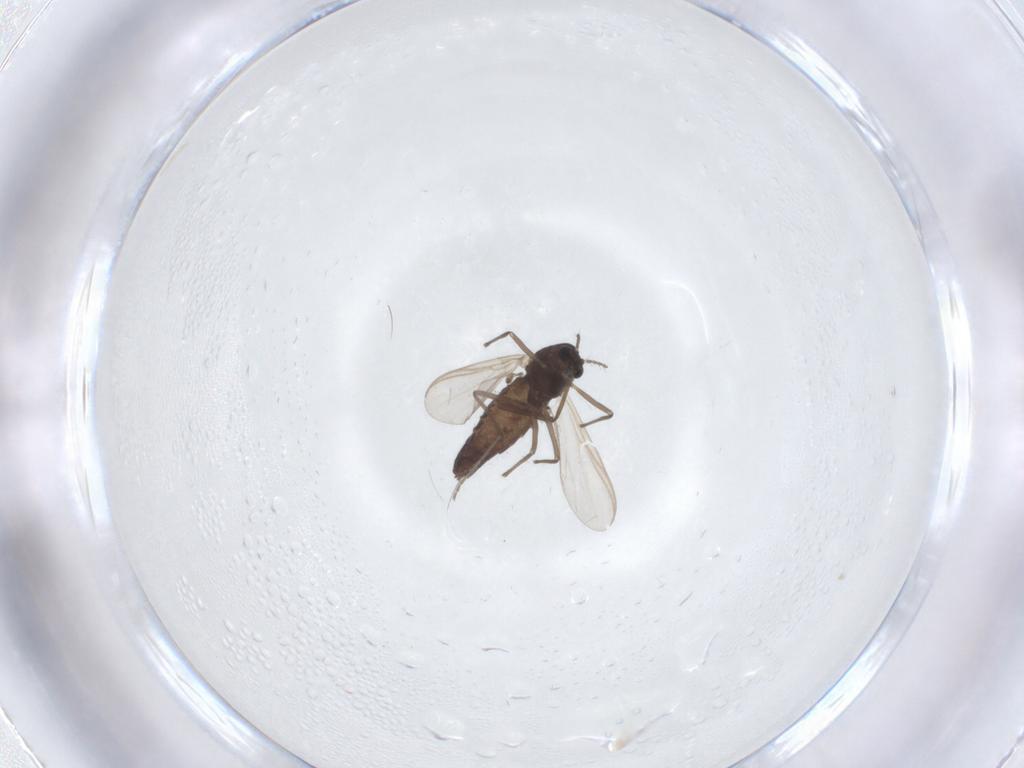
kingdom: Animalia
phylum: Arthropoda
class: Insecta
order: Diptera
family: Chironomidae
